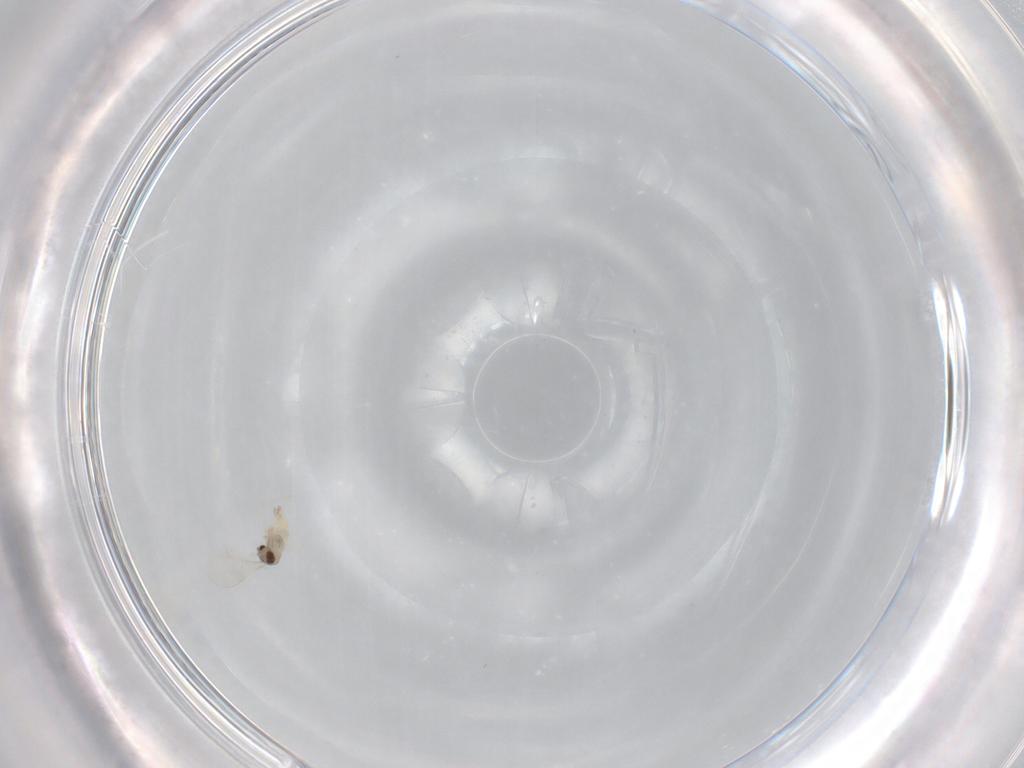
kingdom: Animalia
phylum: Arthropoda
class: Insecta
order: Diptera
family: Cecidomyiidae
